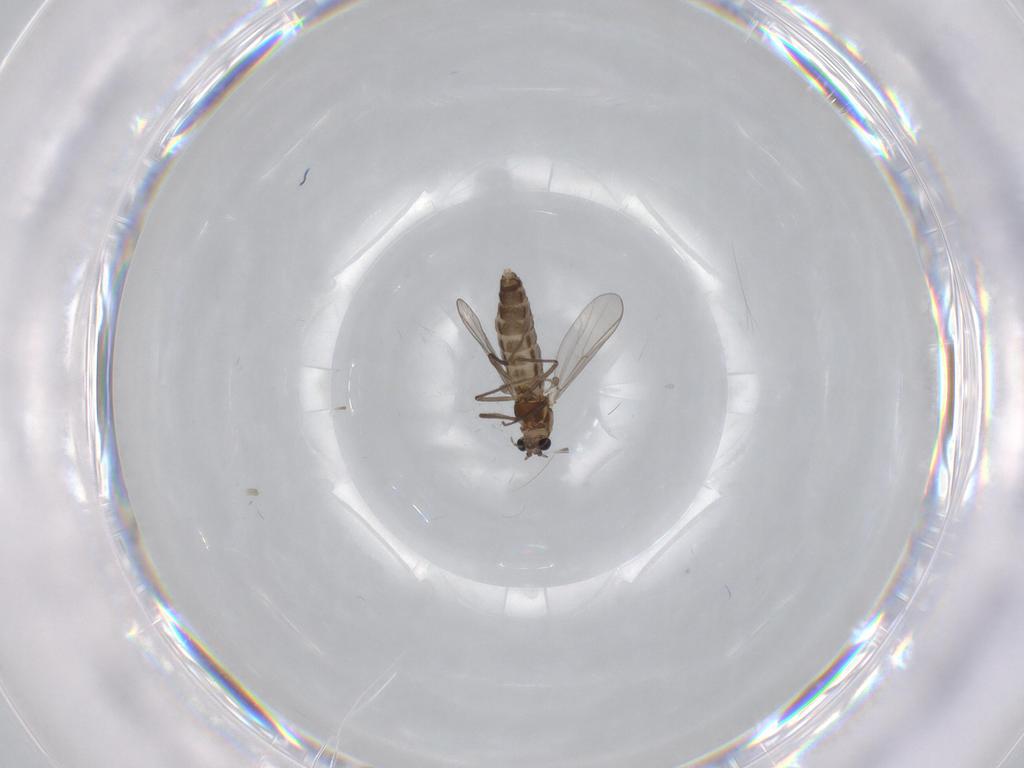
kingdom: Animalia
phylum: Arthropoda
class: Insecta
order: Diptera
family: Chironomidae
